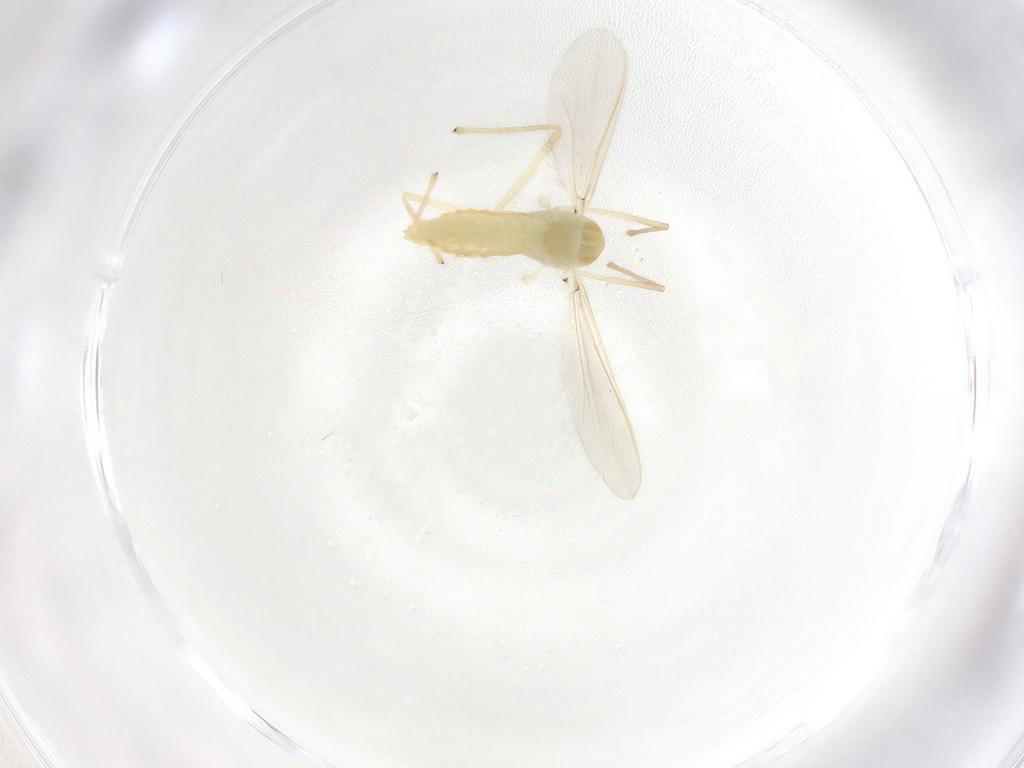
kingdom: Animalia
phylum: Arthropoda
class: Insecta
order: Diptera
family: Chironomidae
